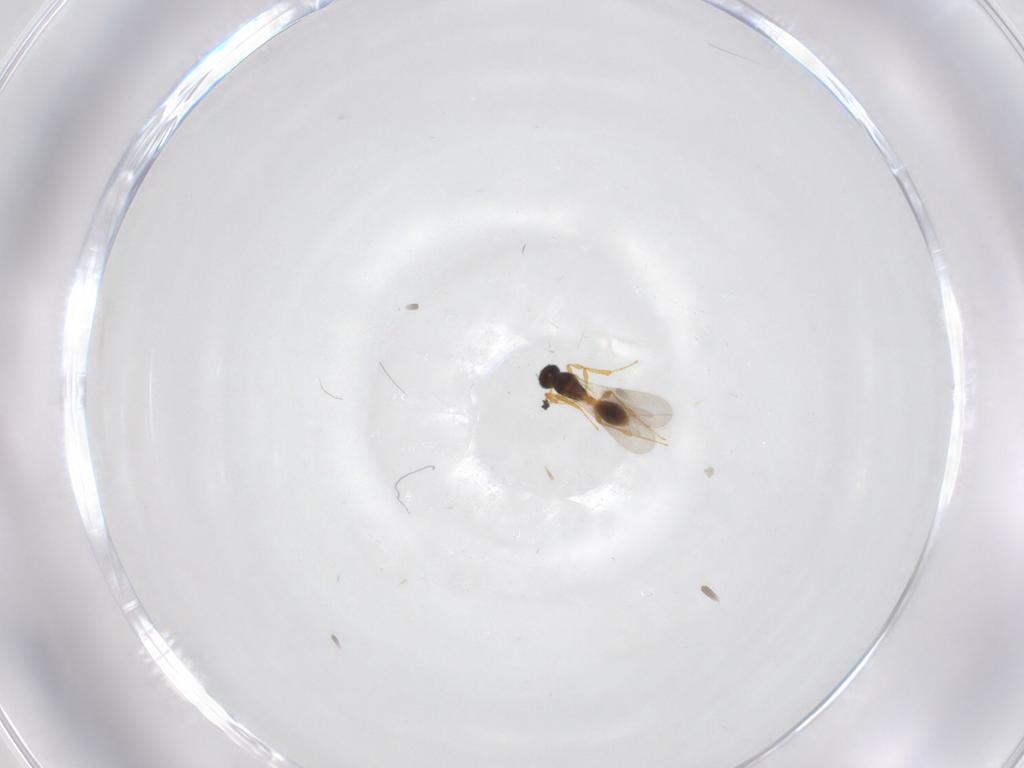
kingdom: Animalia
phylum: Arthropoda
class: Insecta
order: Hymenoptera
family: Platygastridae
